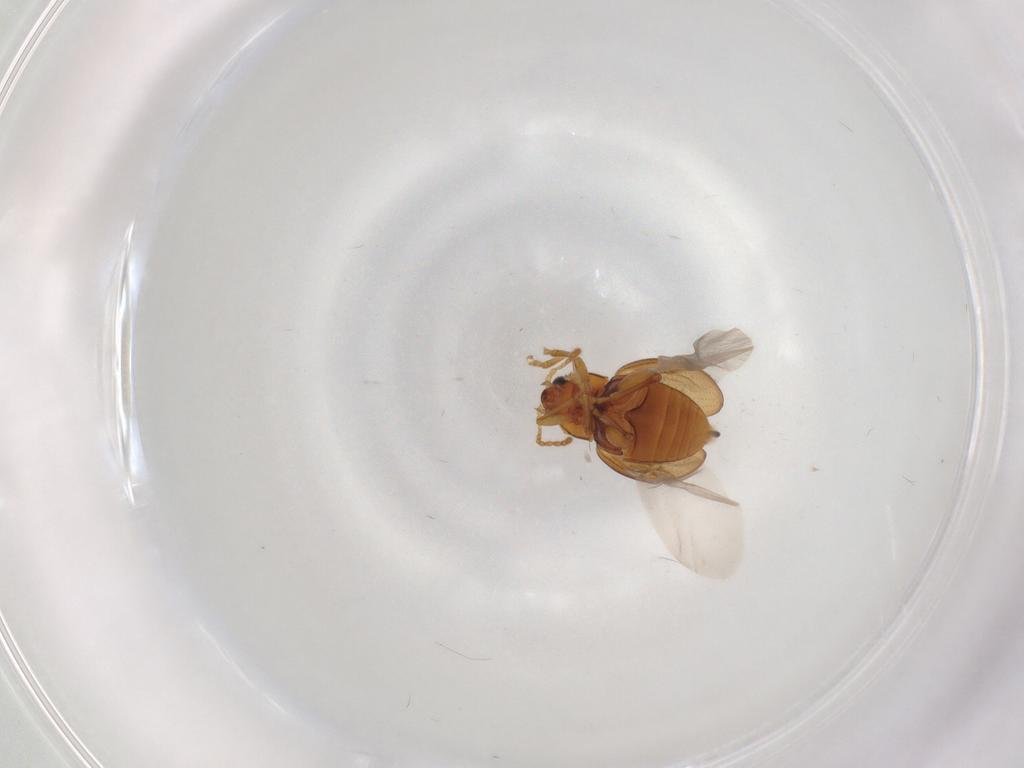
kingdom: Animalia
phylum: Arthropoda
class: Insecta
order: Coleoptera
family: Chrysomelidae
